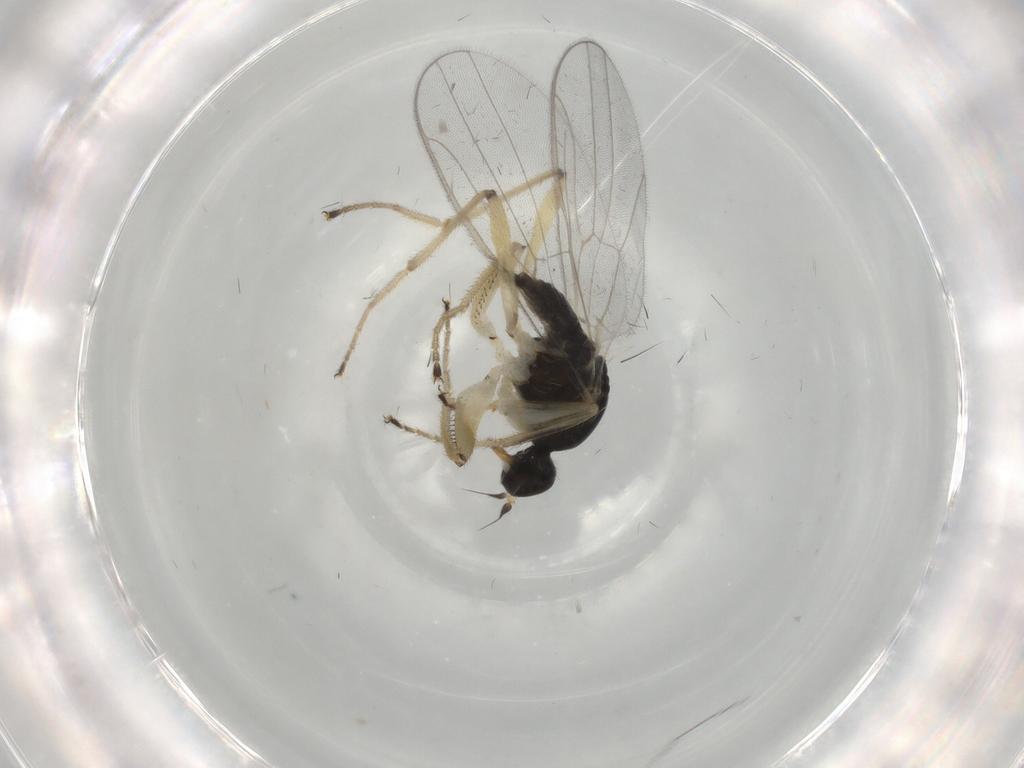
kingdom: Animalia
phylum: Arthropoda
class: Insecta
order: Diptera
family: Hybotidae
